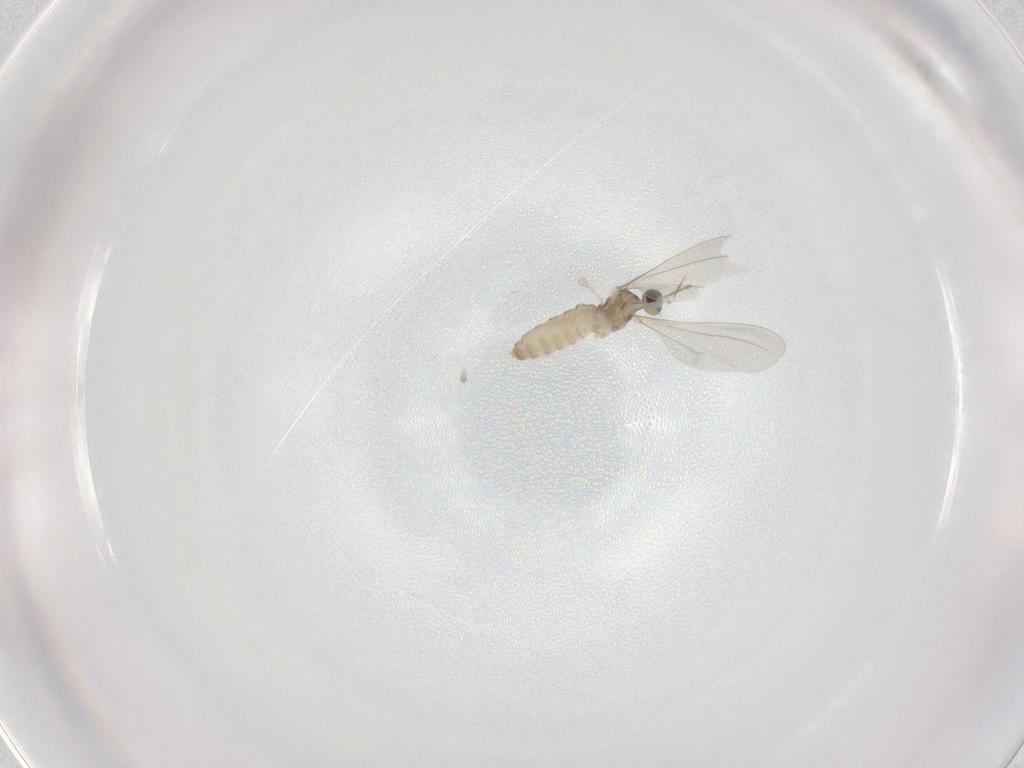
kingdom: Animalia
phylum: Arthropoda
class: Insecta
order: Diptera
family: Cecidomyiidae
